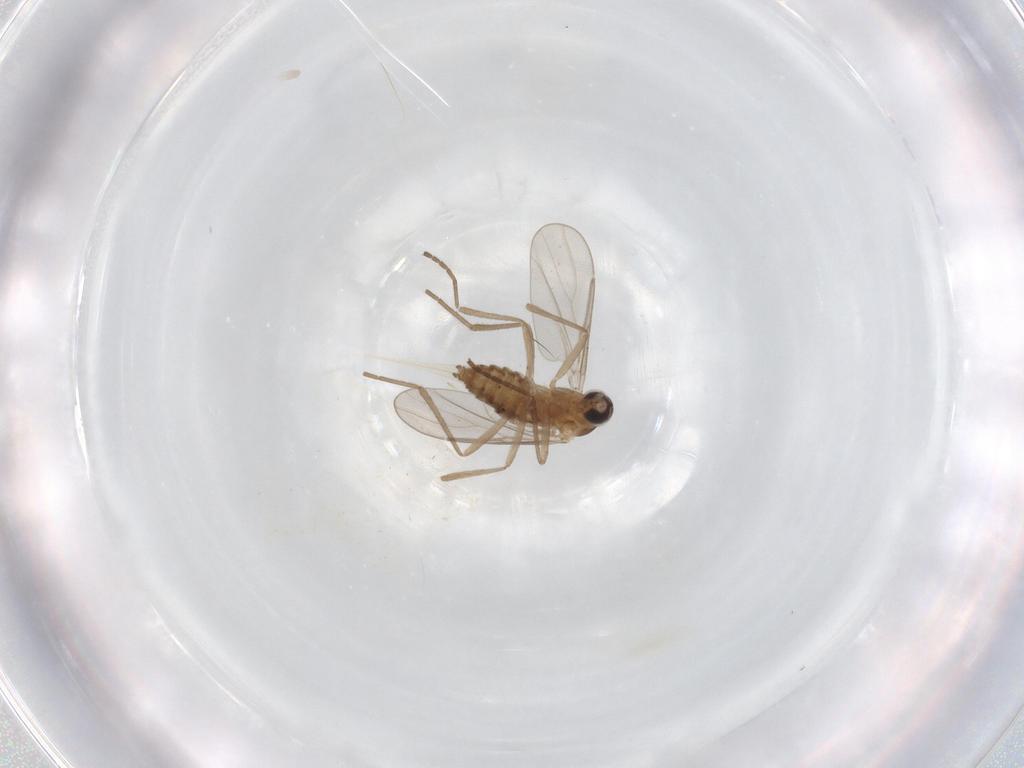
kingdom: Animalia
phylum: Arthropoda
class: Insecta
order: Diptera
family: Cecidomyiidae
